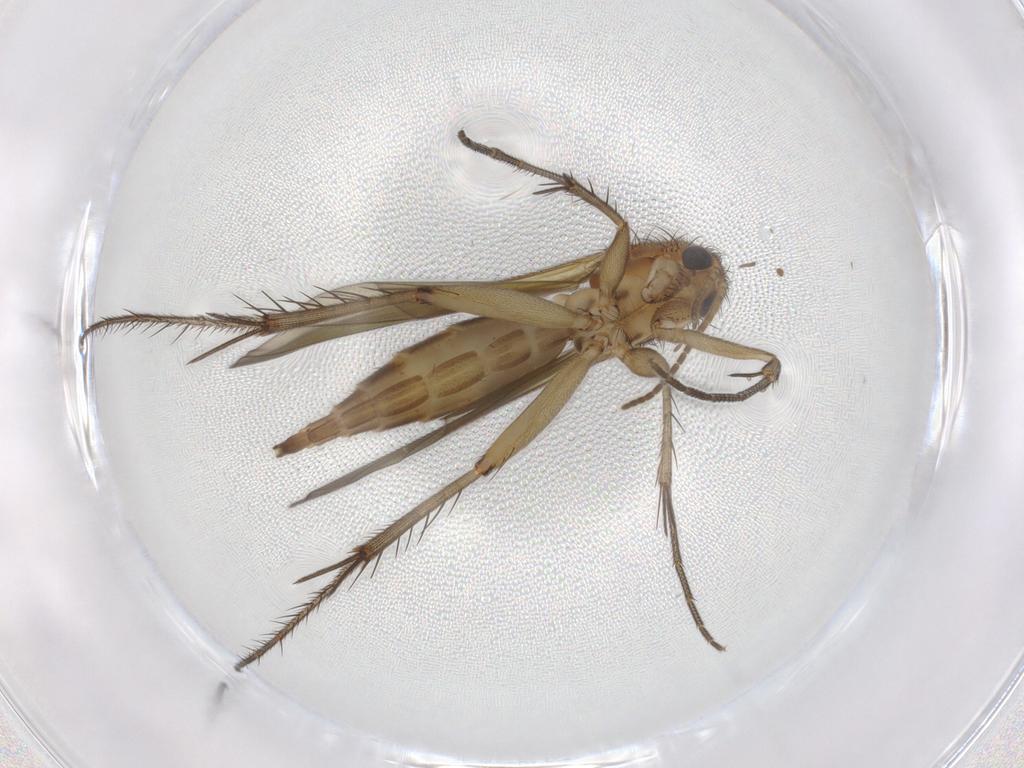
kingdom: Animalia
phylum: Arthropoda
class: Insecta
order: Diptera
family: Mycetophilidae
